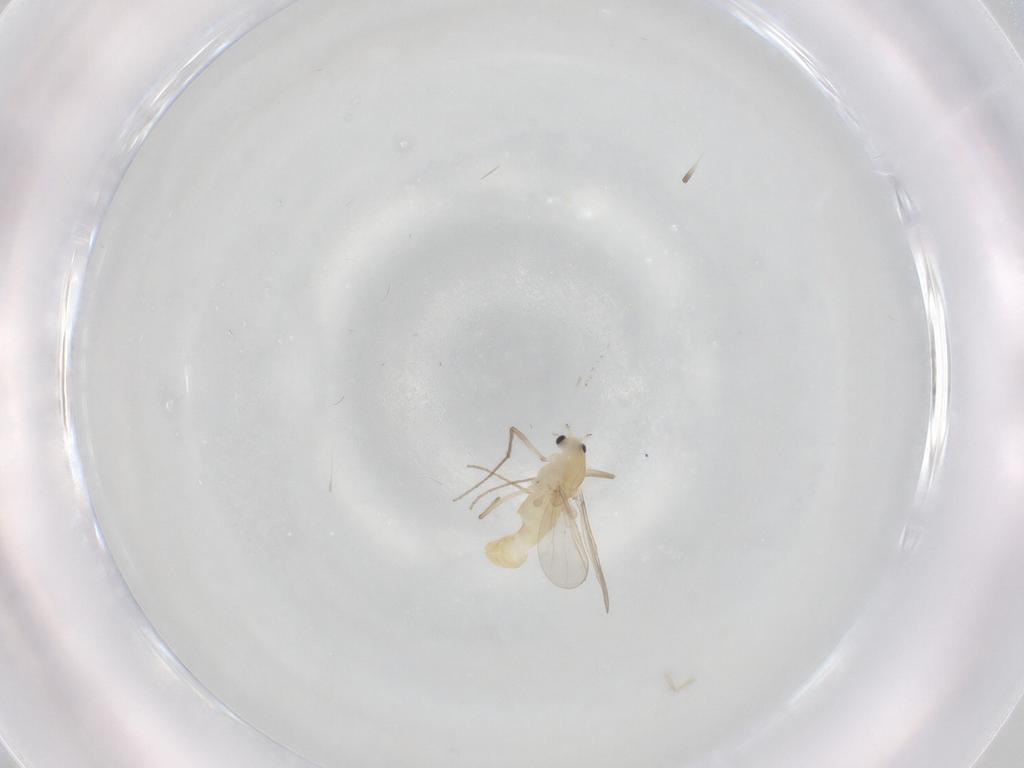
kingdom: Animalia
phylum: Arthropoda
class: Insecta
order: Diptera
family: Chironomidae
